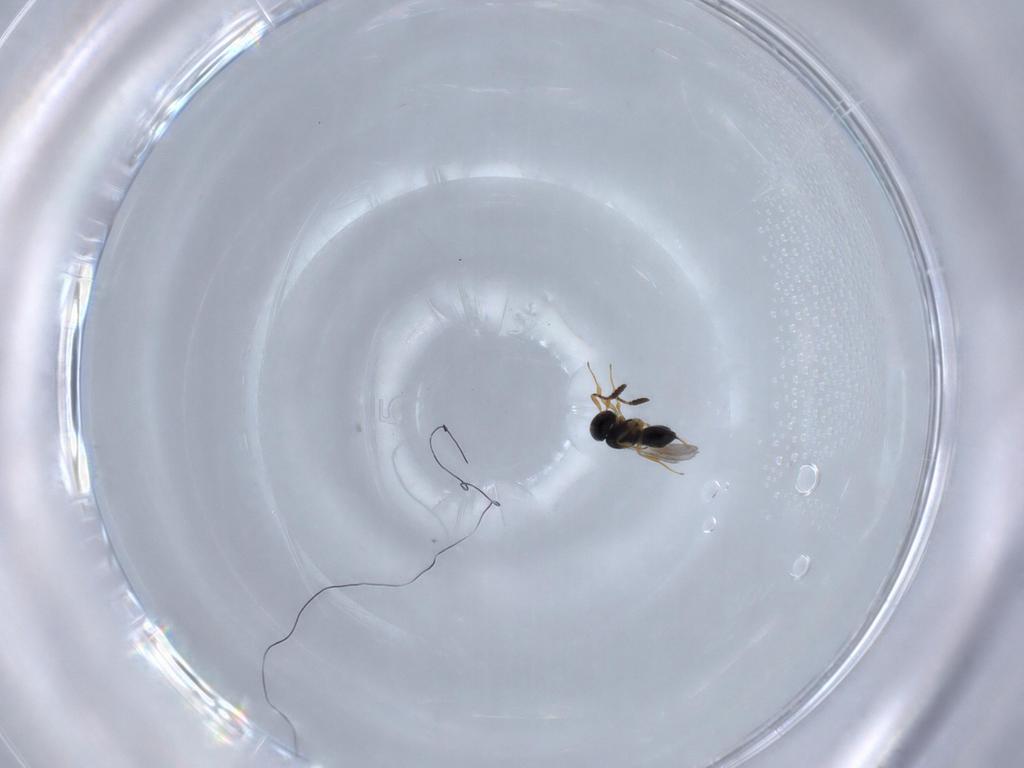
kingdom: Animalia
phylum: Arthropoda
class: Insecta
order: Hymenoptera
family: Scelionidae
